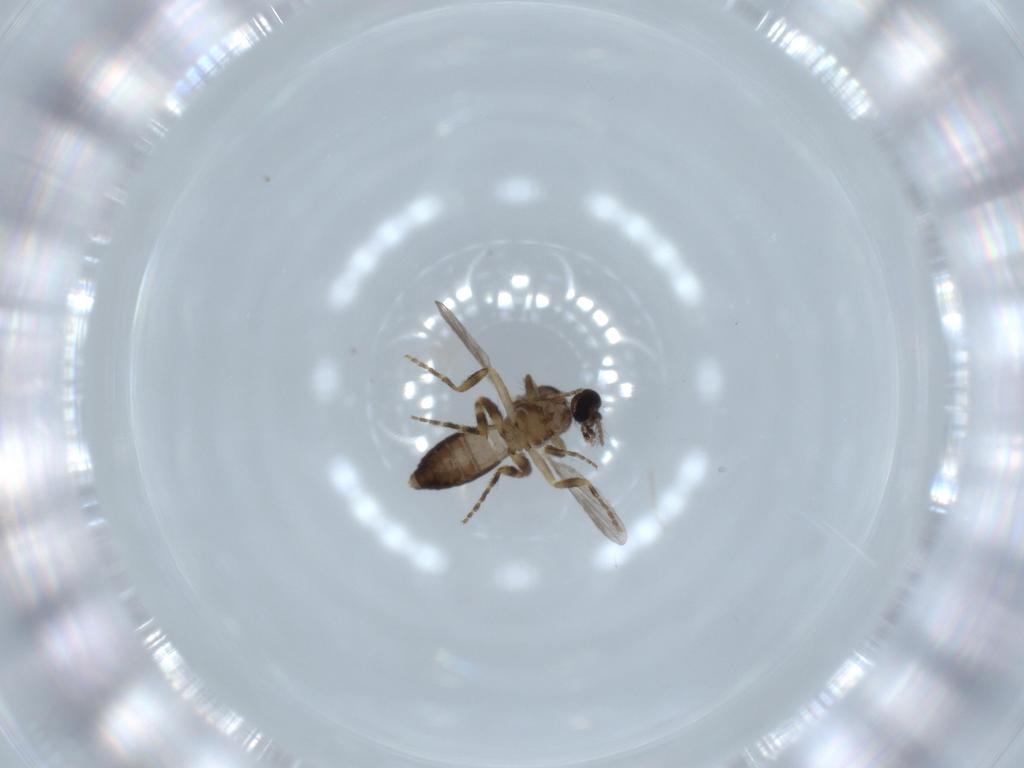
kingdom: Animalia
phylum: Arthropoda
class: Insecta
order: Diptera
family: Ceratopogonidae
